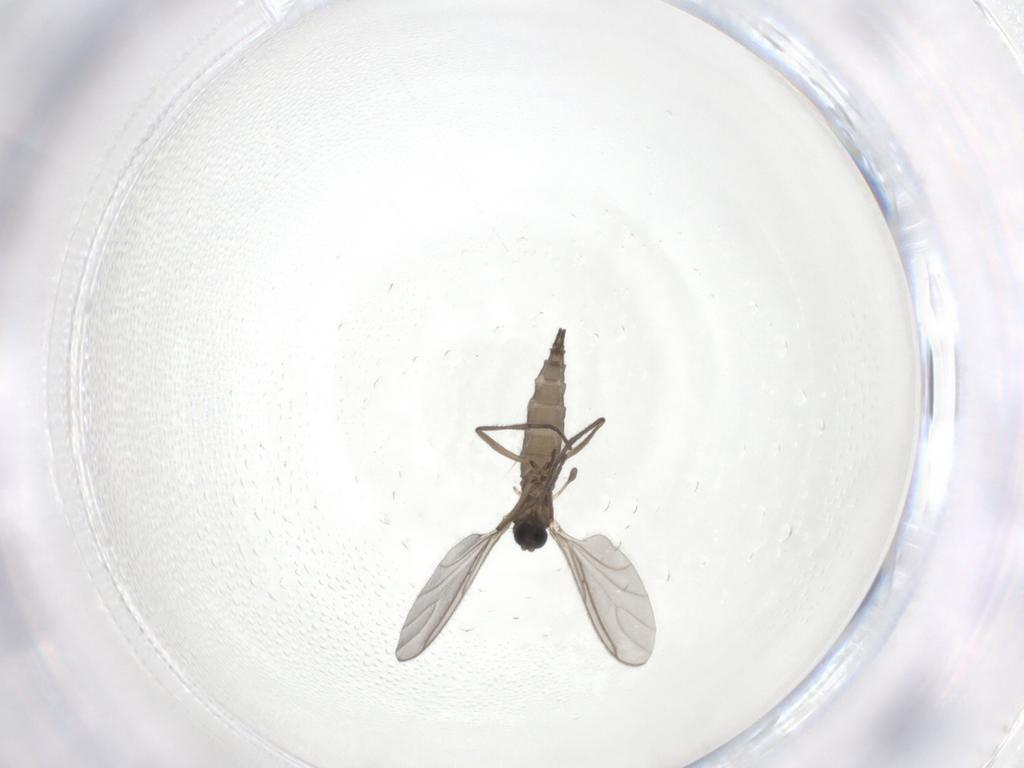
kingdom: Animalia
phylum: Arthropoda
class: Insecta
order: Diptera
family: Sciaridae
